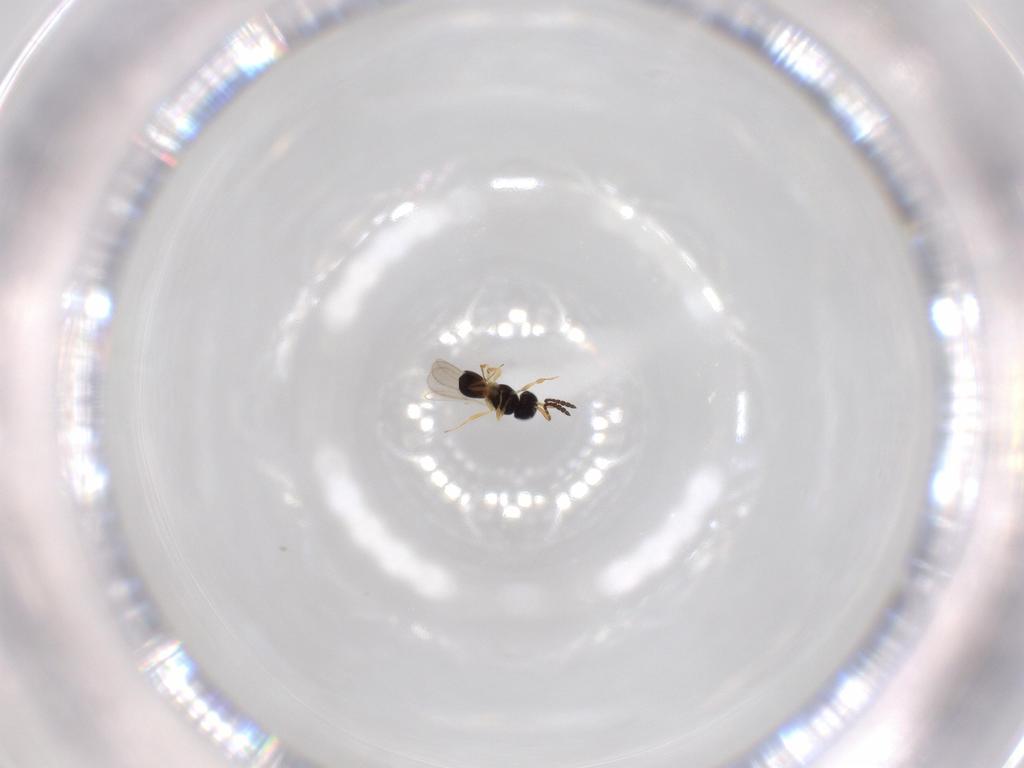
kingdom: Animalia
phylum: Arthropoda
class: Insecta
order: Hymenoptera
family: Scelionidae
